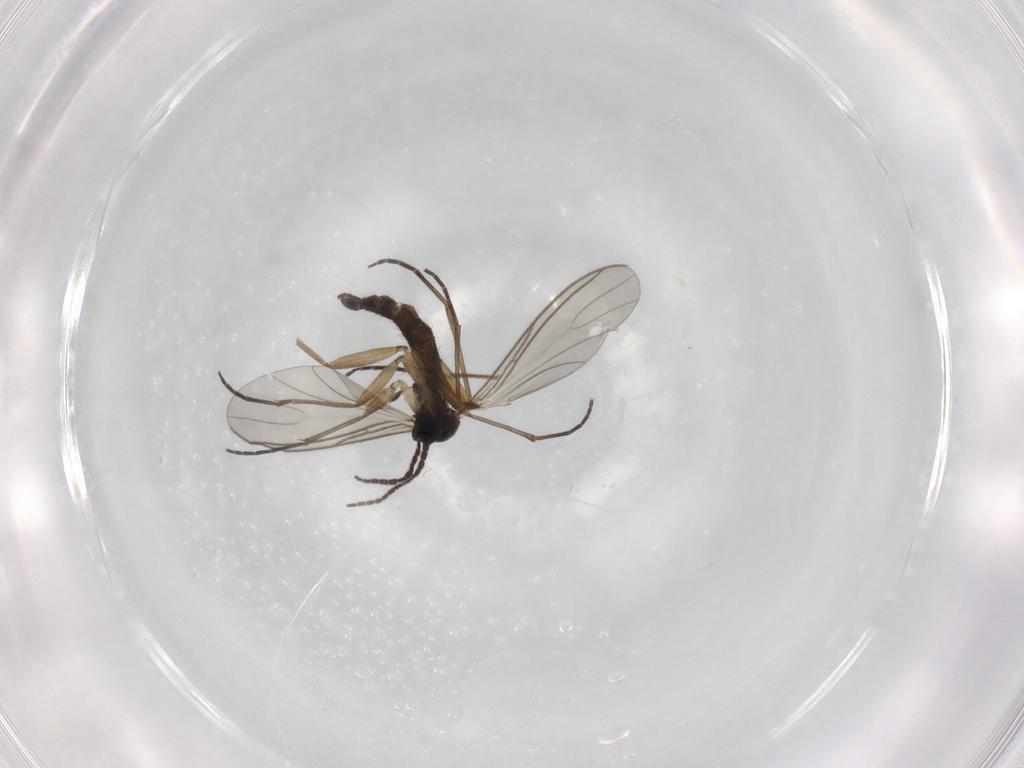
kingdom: Animalia
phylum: Arthropoda
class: Insecta
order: Diptera
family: Sciaridae
